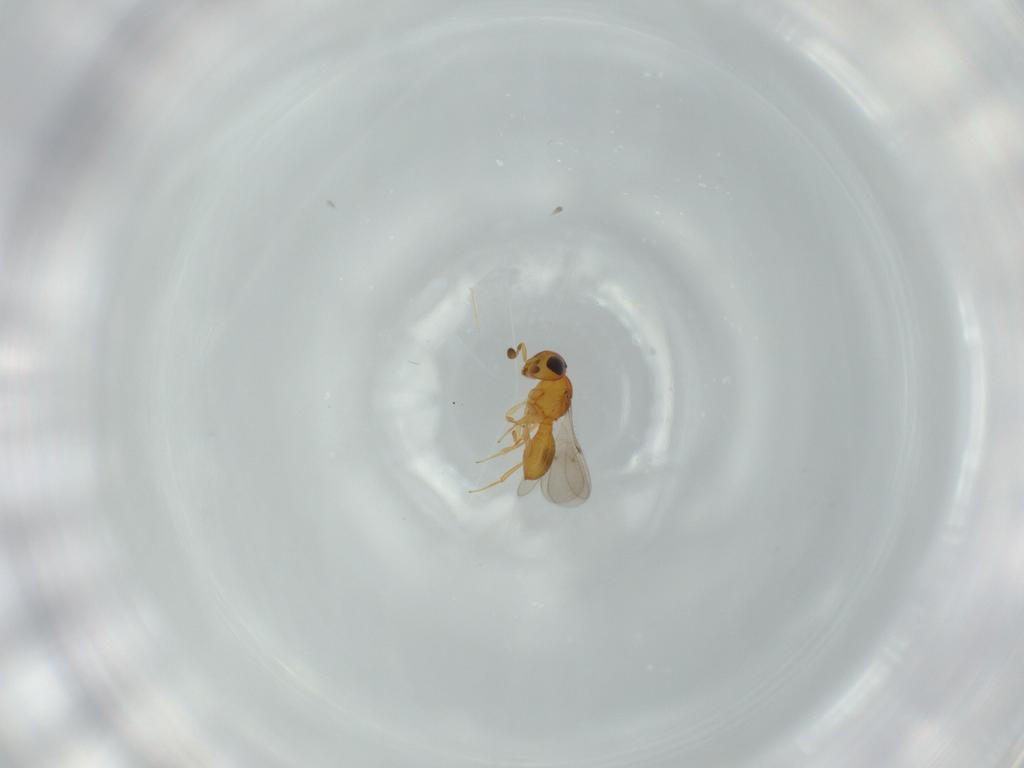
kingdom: Animalia
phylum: Arthropoda
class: Insecta
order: Hymenoptera
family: Scelionidae
